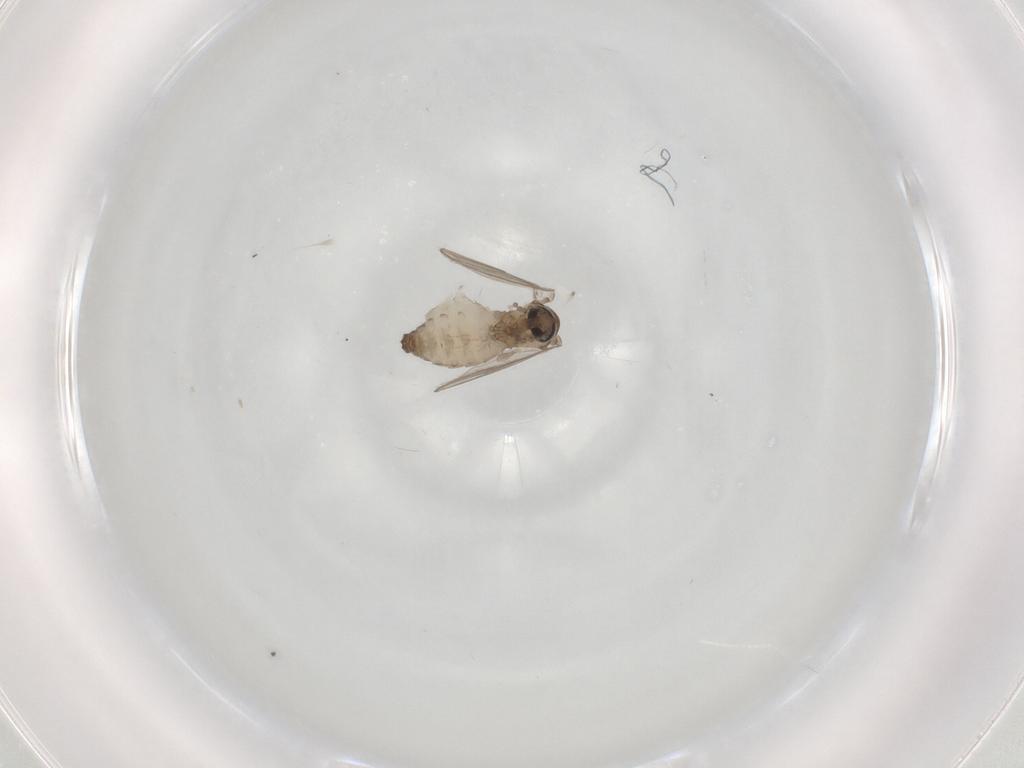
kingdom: Animalia
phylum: Arthropoda
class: Insecta
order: Diptera
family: Psychodidae
